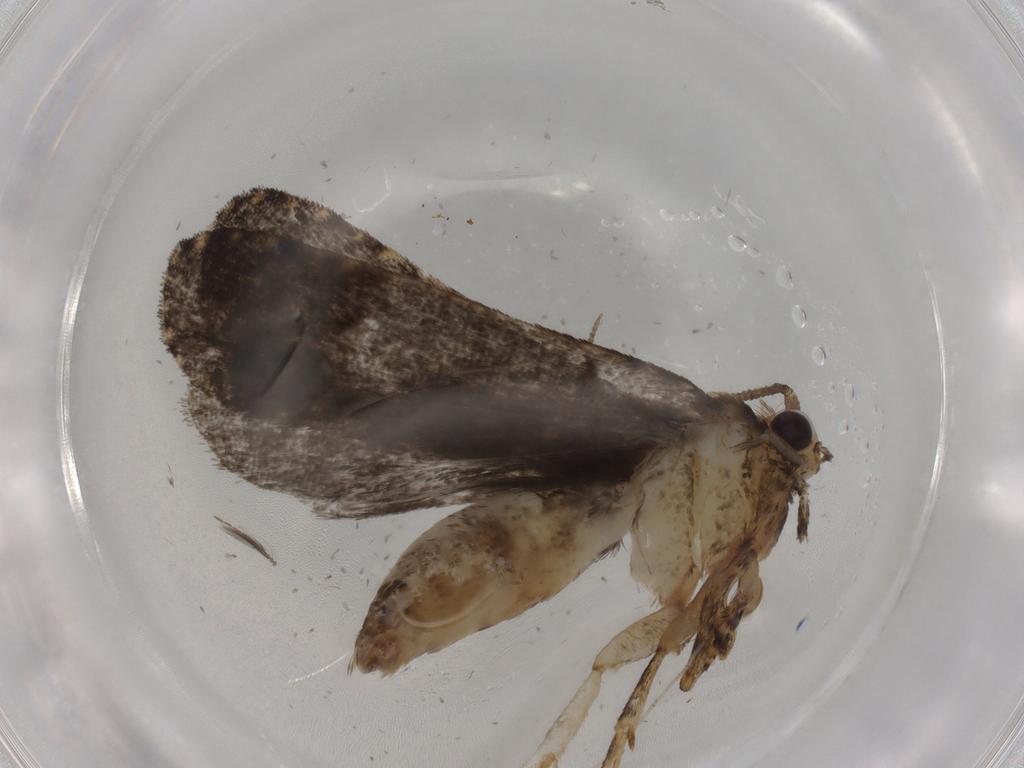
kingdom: Animalia
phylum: Arthropoda
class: Insecta
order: Lepidoptera
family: Tineidae
